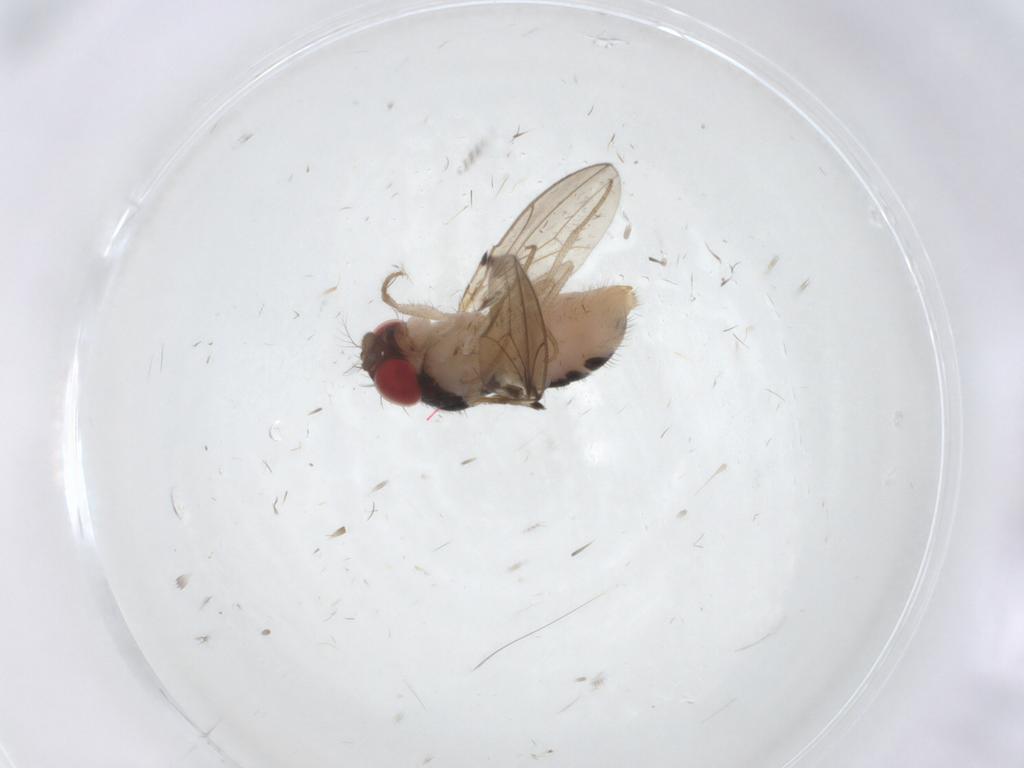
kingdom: Animalia
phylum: Arthropoda
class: Insecta
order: Diptera
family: Drosophilidae
